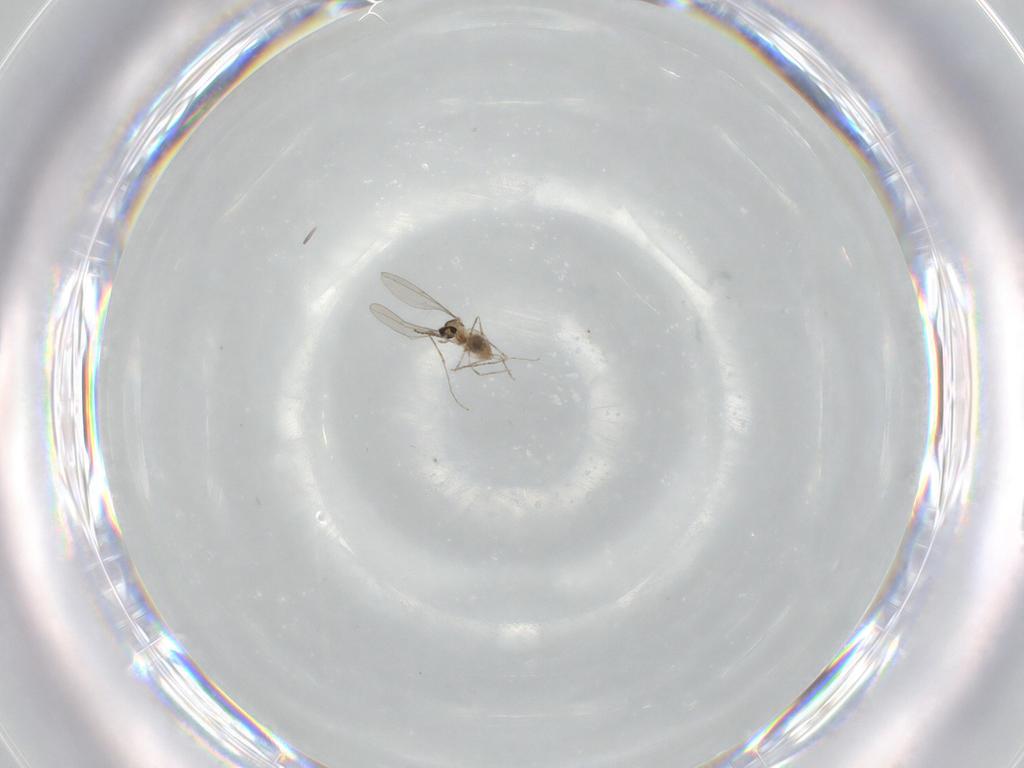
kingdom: Animalia
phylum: Arthropoda
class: Insecta
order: Diptera
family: Cecidomyiidae
